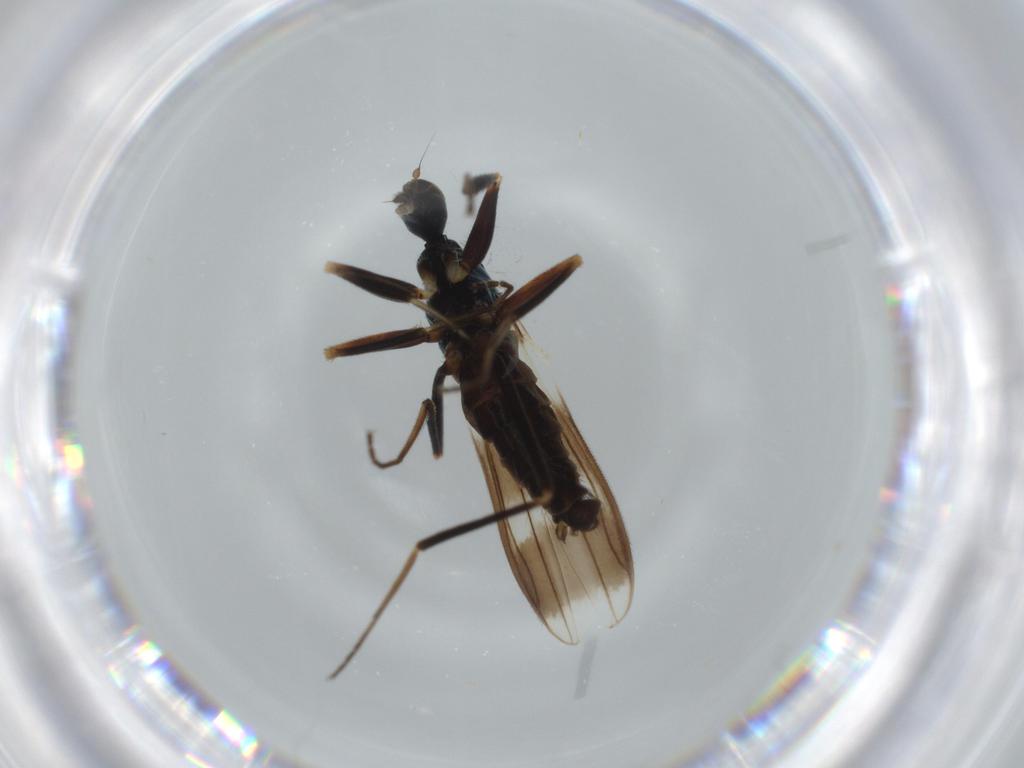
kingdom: Animalia
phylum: Arthropoda
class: Insecta
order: Diptera
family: Hybotidae
